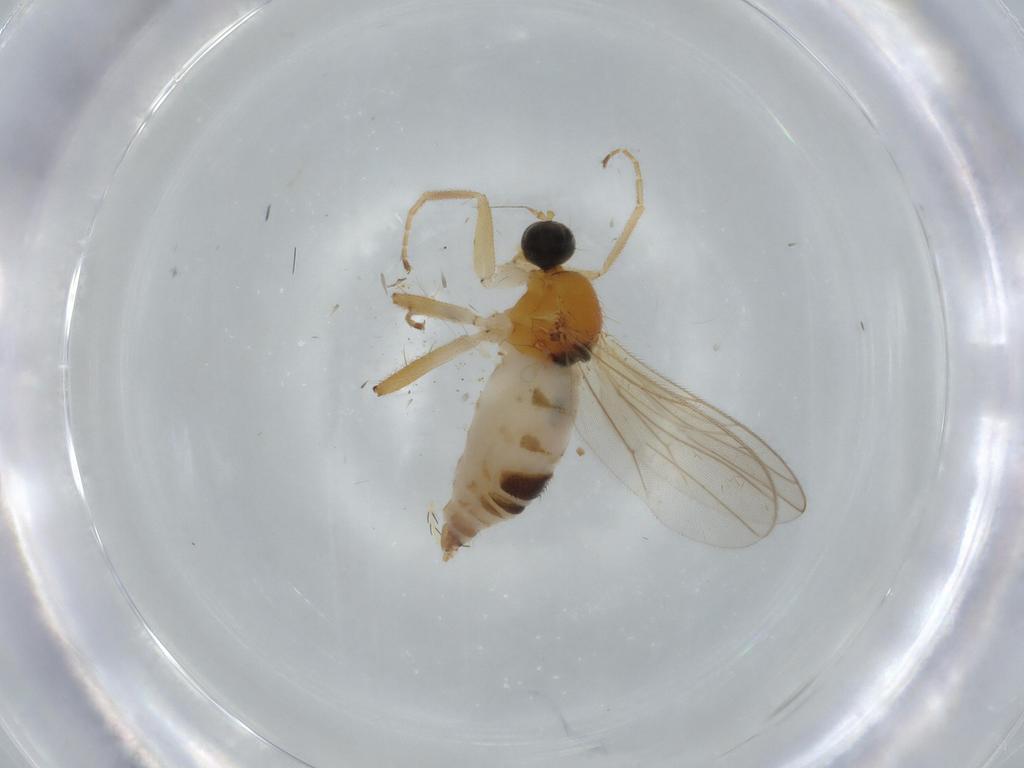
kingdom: Animalia
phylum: Arthropoda
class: Insecta
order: Diptera
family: Hybotidae
